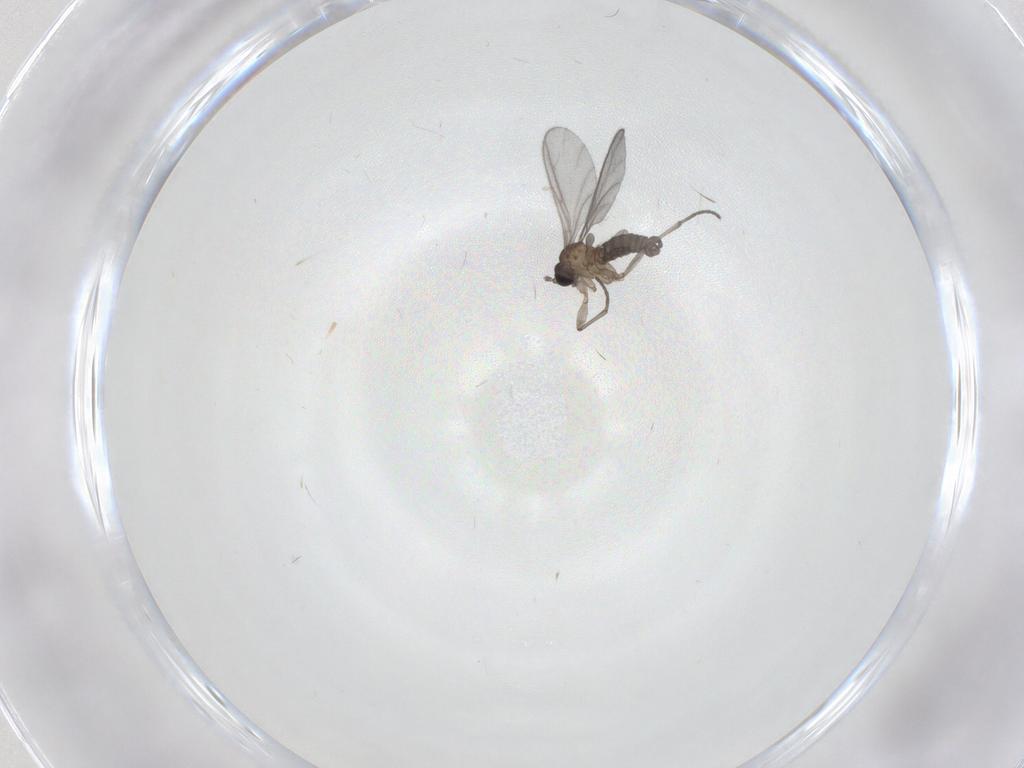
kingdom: Animalia
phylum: Arthropoda
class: Insecta
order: Diptera
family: Sciaridae
